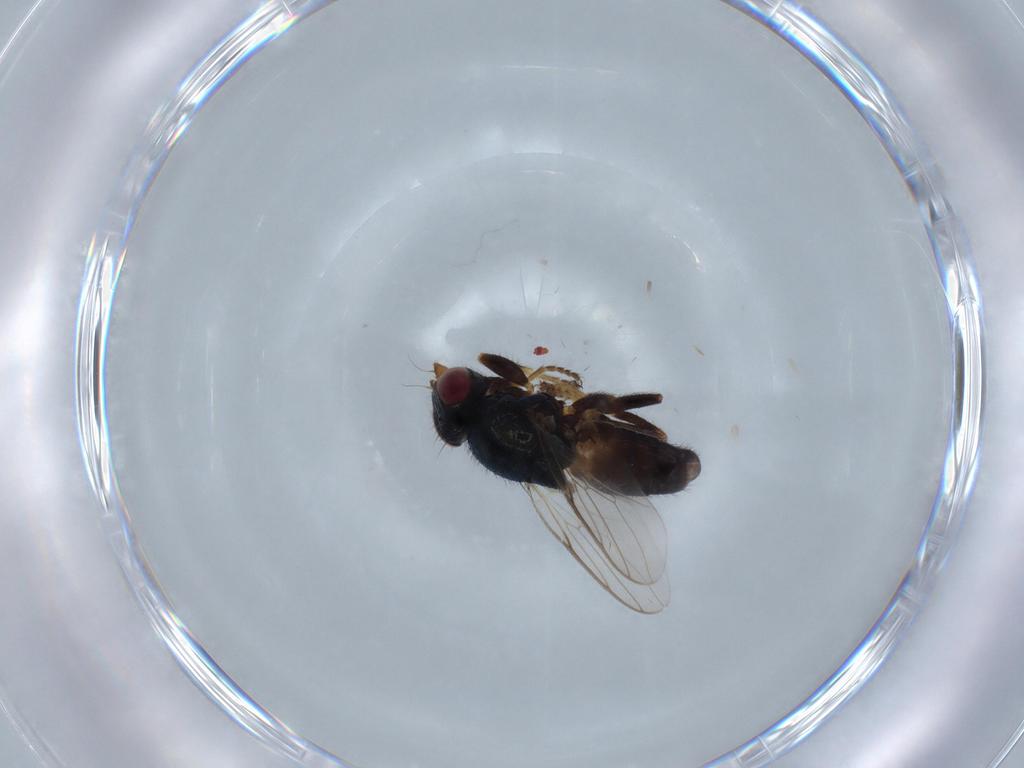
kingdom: Animalia
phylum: Arthropoda
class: Insecta
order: Diptera
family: Chloropidae
